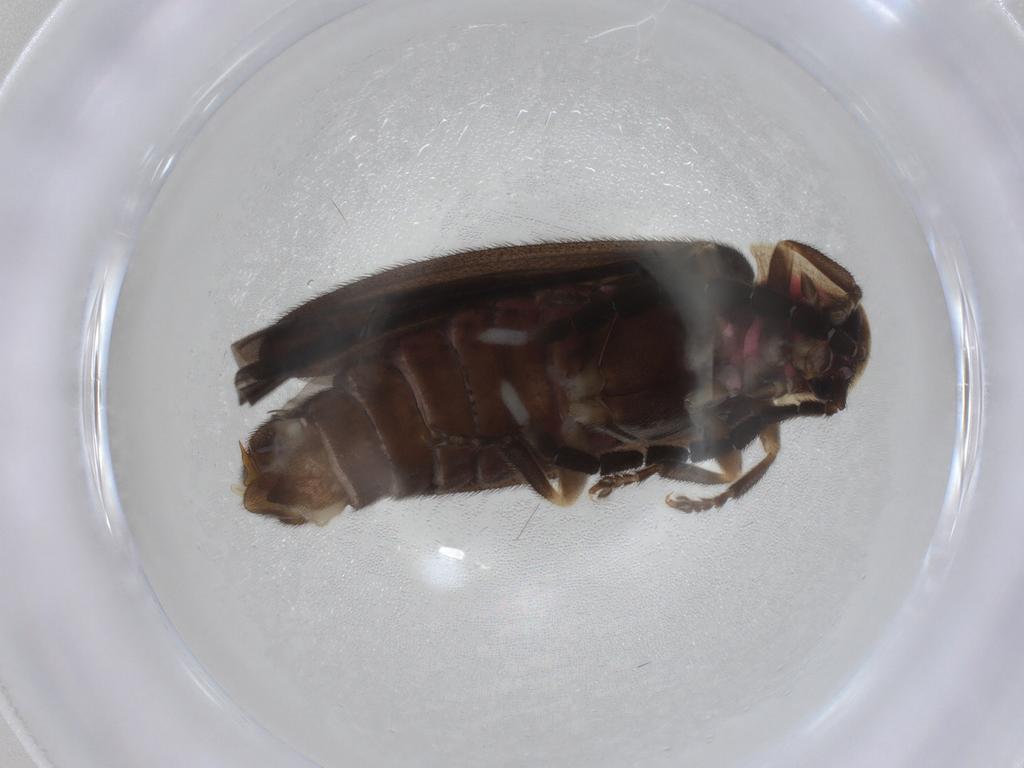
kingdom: Animalia
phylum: Arthropoda
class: Insecta
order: Coleoptera
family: Lampyridae
